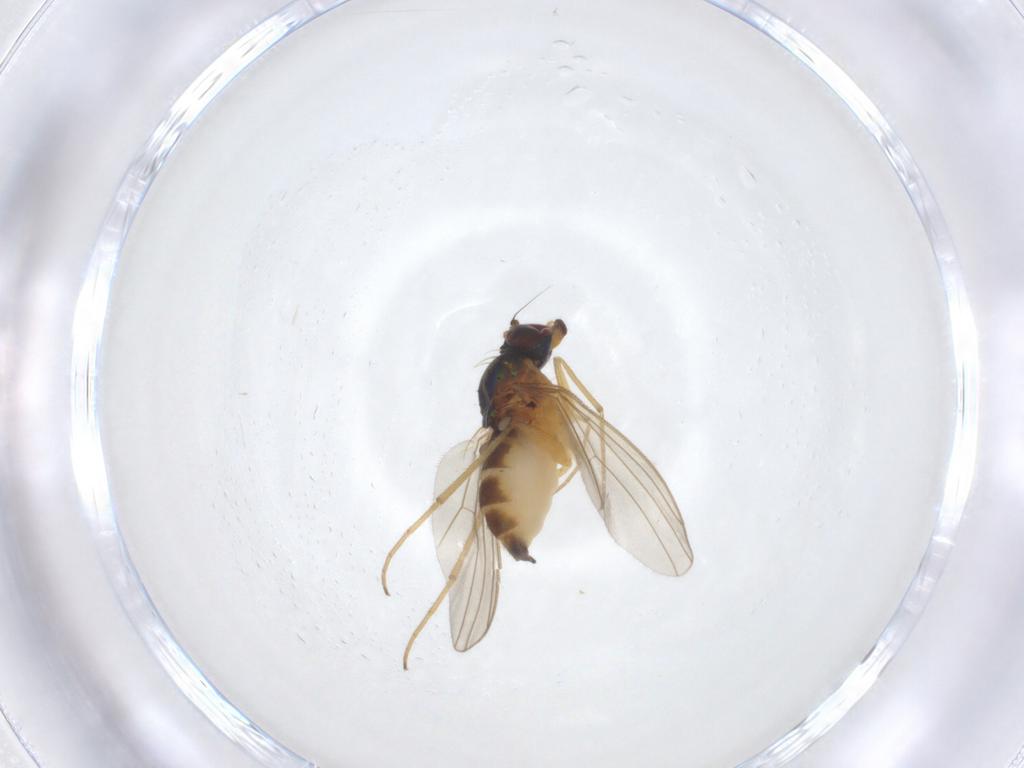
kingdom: Animalia
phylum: Arthropoda
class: Insecta
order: Diptera
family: Dolichopodidae
